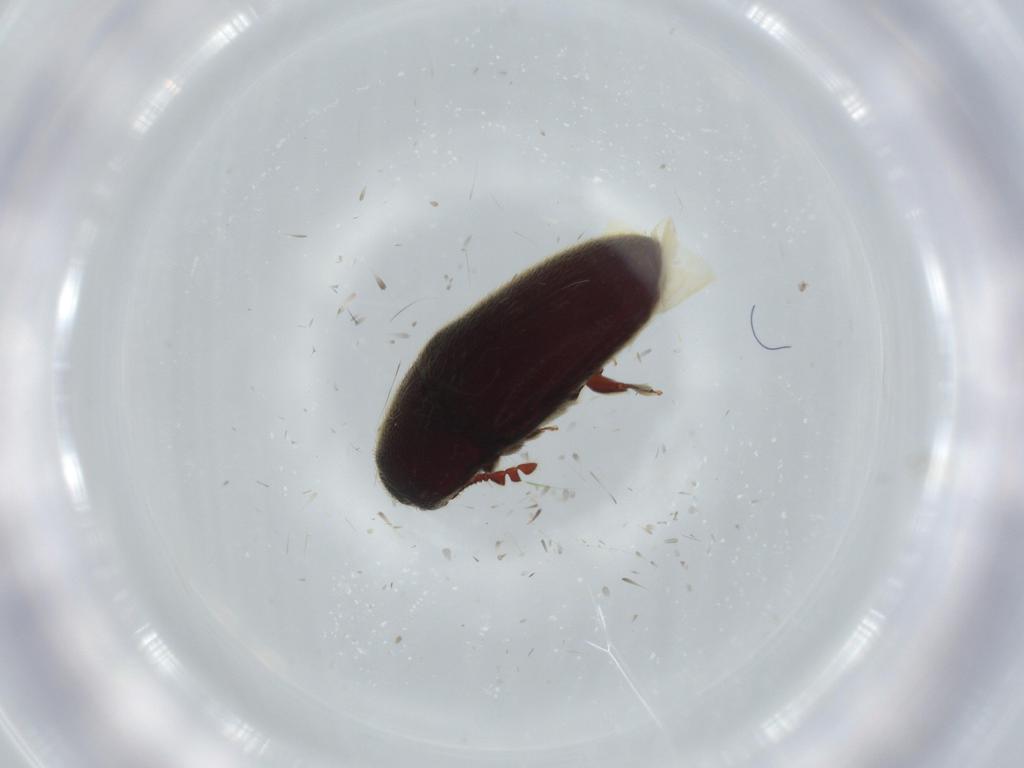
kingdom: Animalia
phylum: Arthropoda
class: Insecta
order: Coleoptera
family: Throscidae
